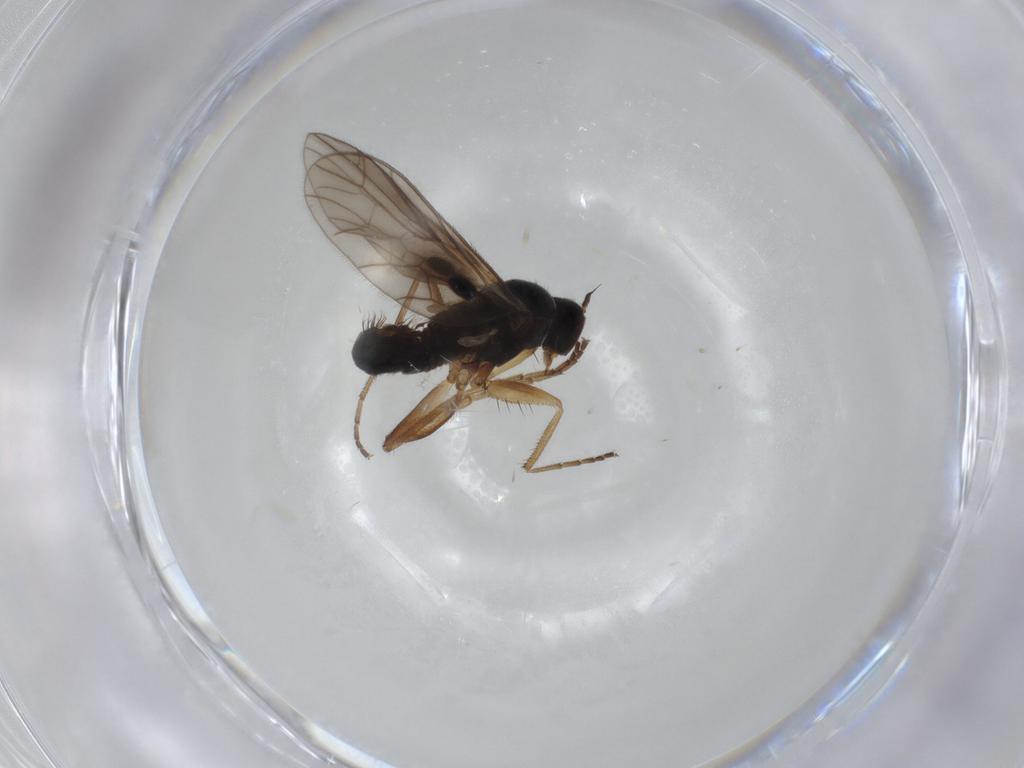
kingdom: Animalia
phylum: Arthropoda
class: Insecta
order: Diptera
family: Empididae
